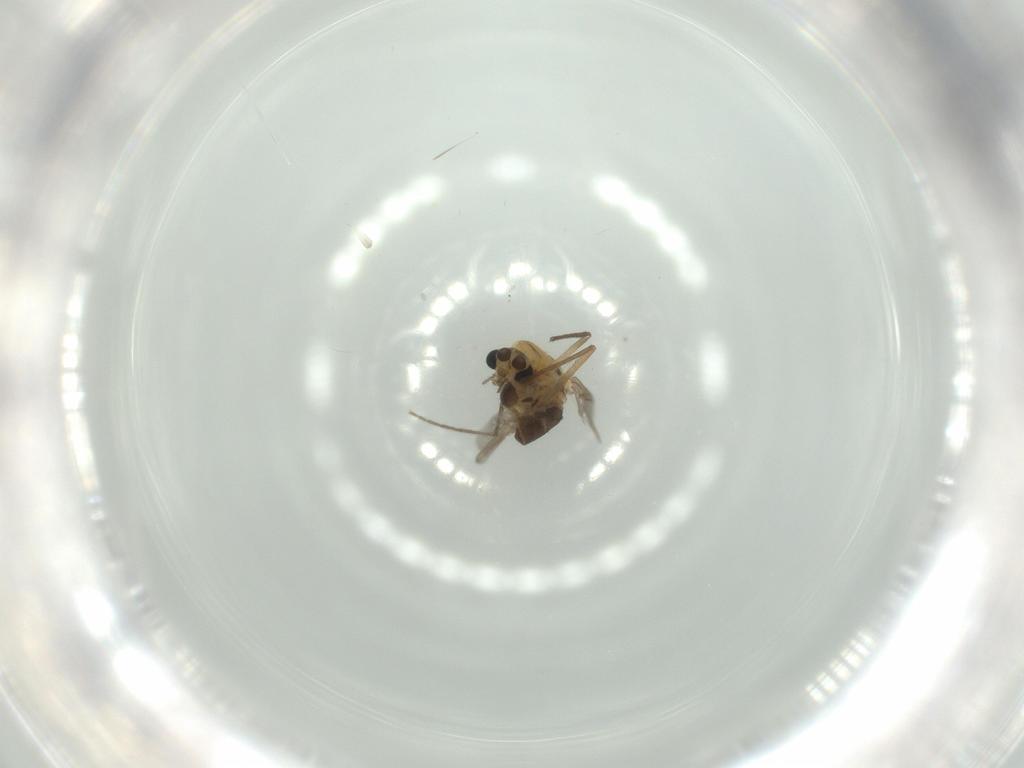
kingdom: Animalia
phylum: Arthropoda
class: Insecta
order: Diptera
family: Chironomidae
